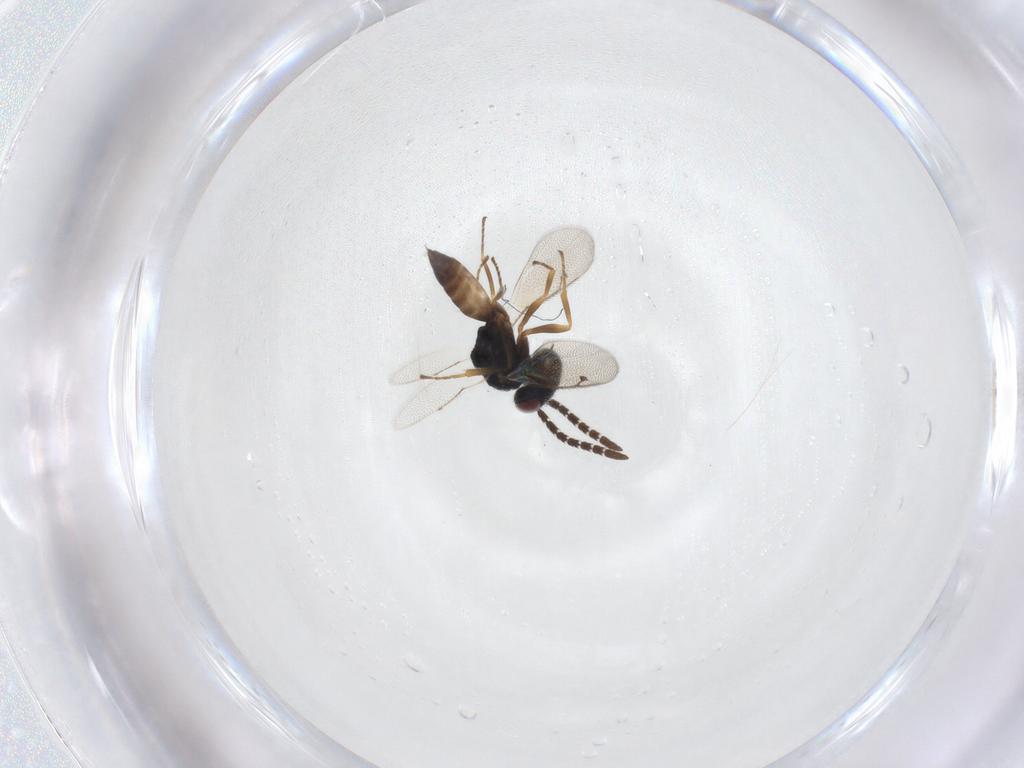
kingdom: Animalia
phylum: Arthropoda
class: Insecta
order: Hymenoptera
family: Pteromalidae
